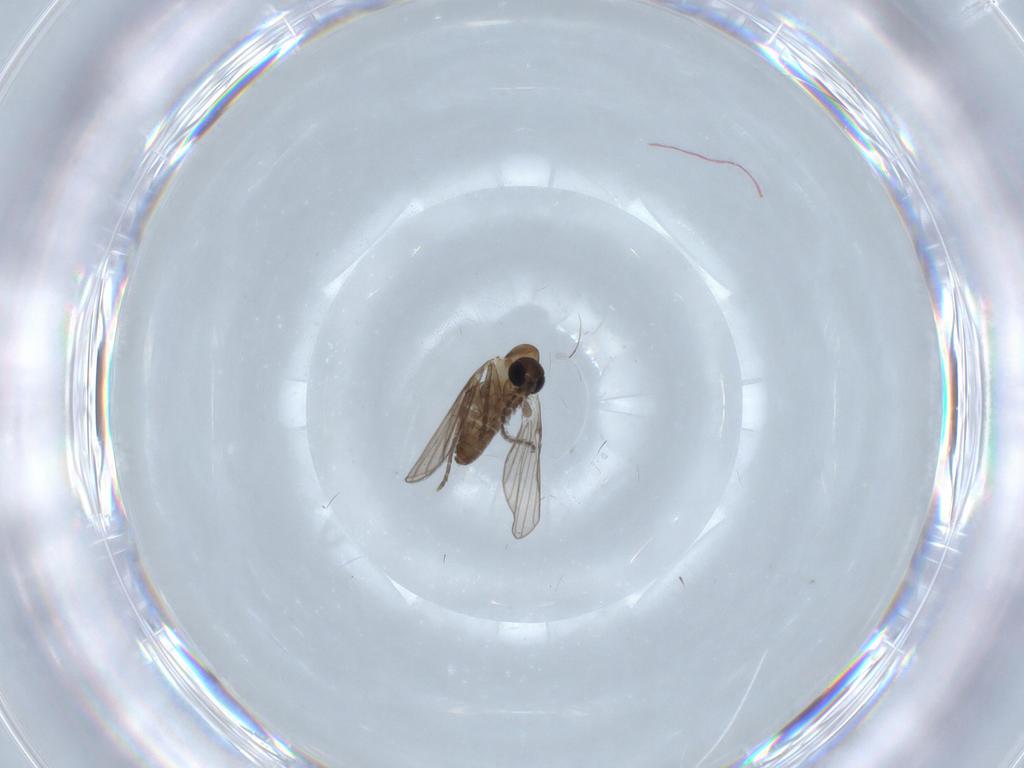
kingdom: Animalia
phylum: Arthropoda
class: Insecta
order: Diptera
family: Psychodidae
